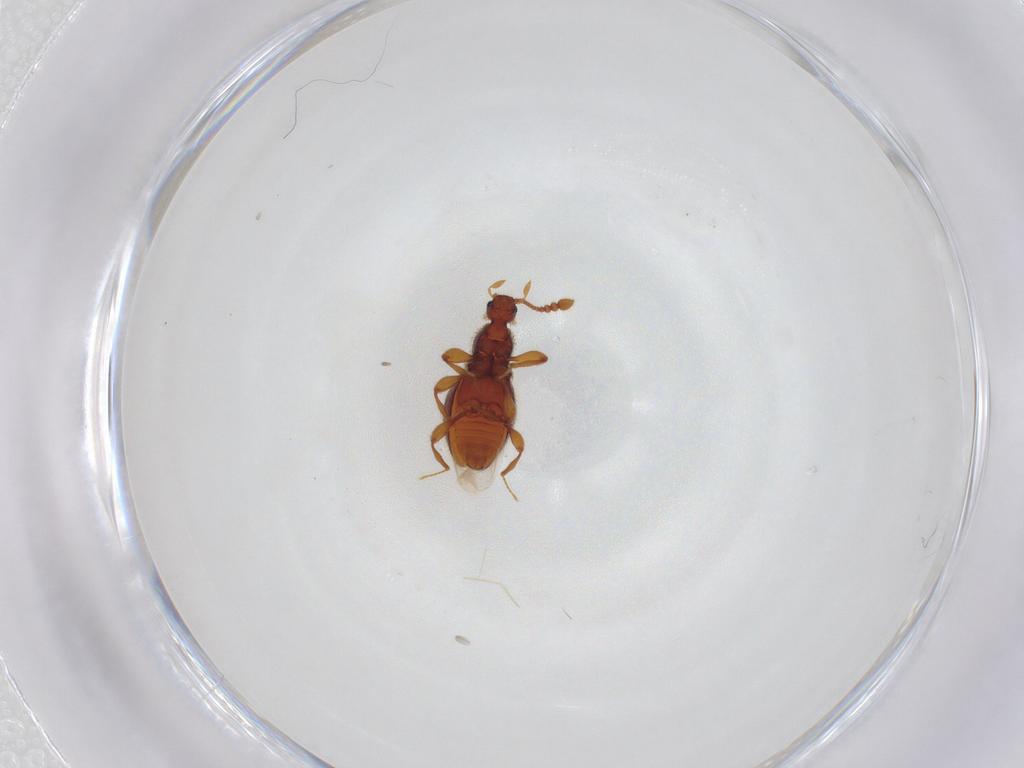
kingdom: Animalia
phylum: Arthropoda
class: Insecta
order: Coleoptera
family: Staphylinidae
